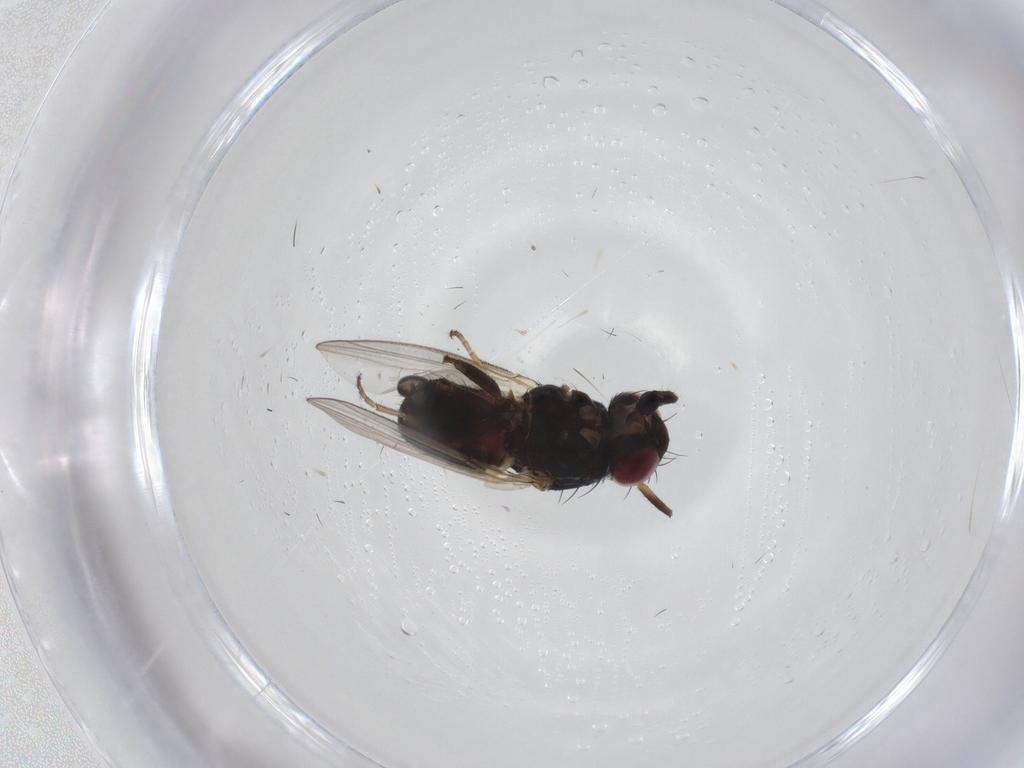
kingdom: Animalia
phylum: Arthropoda
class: Insecta
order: Diptera
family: Carnidae
